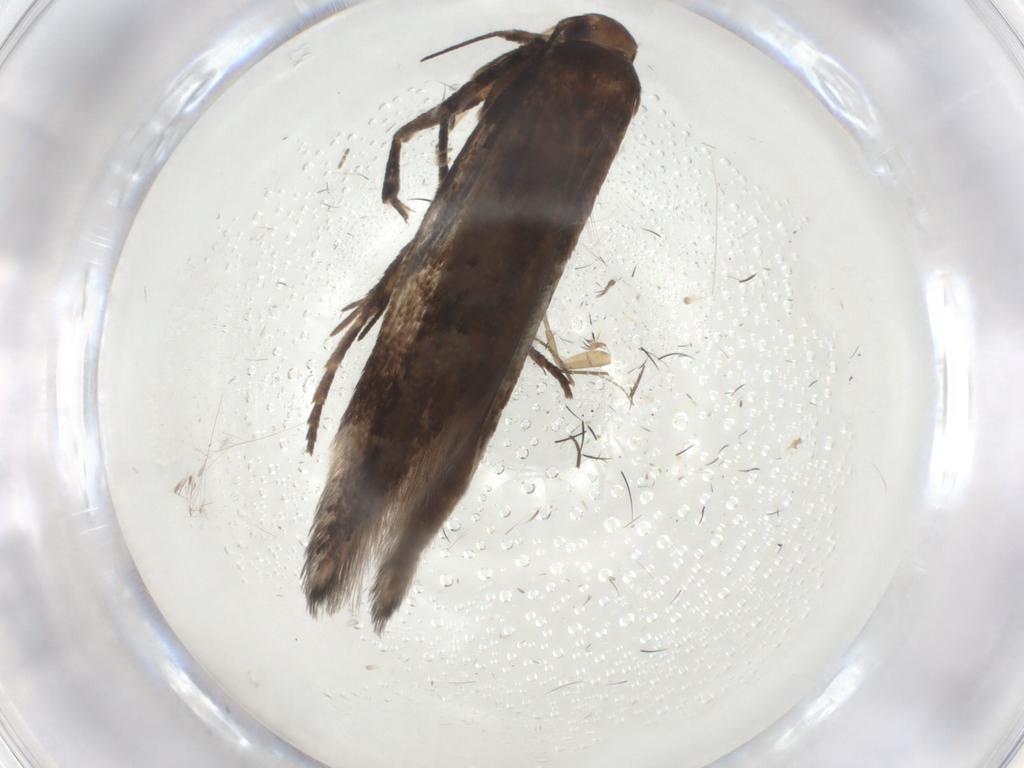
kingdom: Animalia
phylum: Arthropoda
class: Insecta
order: Lepidoptera
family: Gelechiidae
